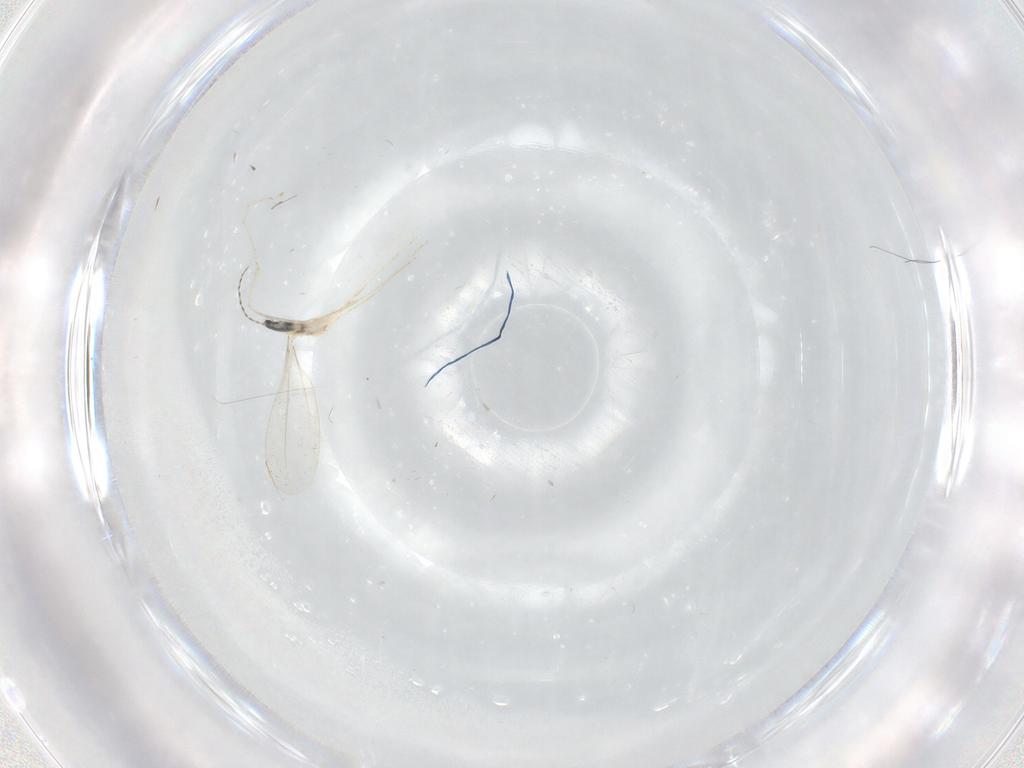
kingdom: Animalia
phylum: Arthropoda
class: Insecta
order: Diptera
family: Cecidomyiidae
